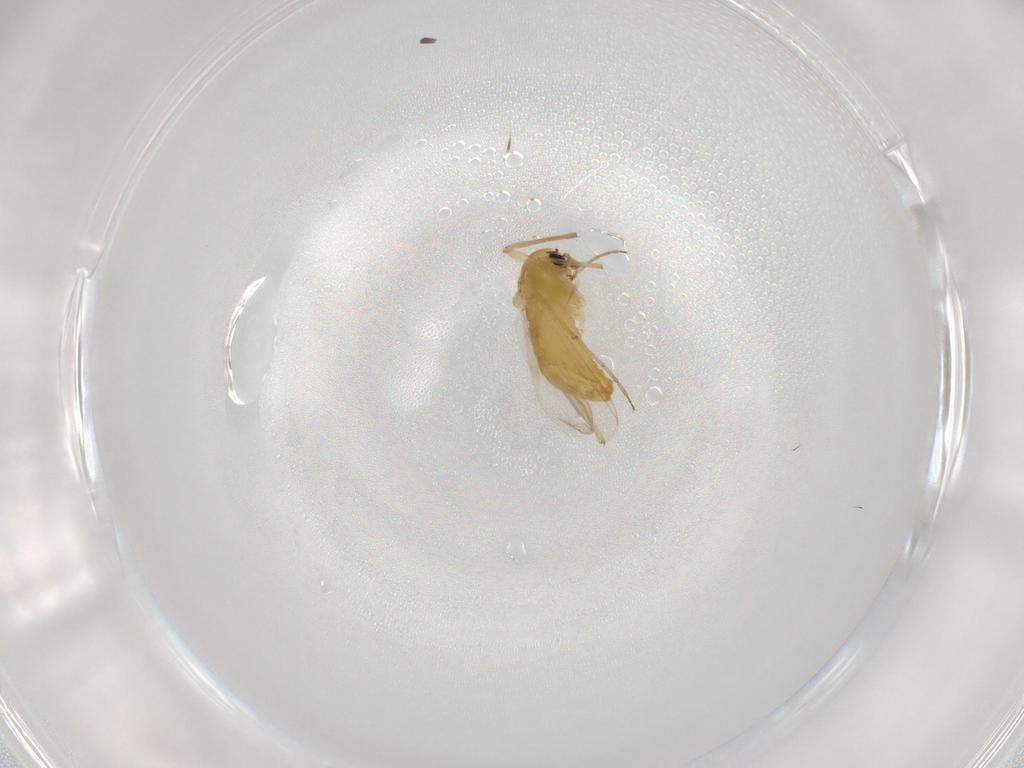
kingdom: Animalia
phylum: Arthropoda
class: Insecta
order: Diptera
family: Chironomidae
